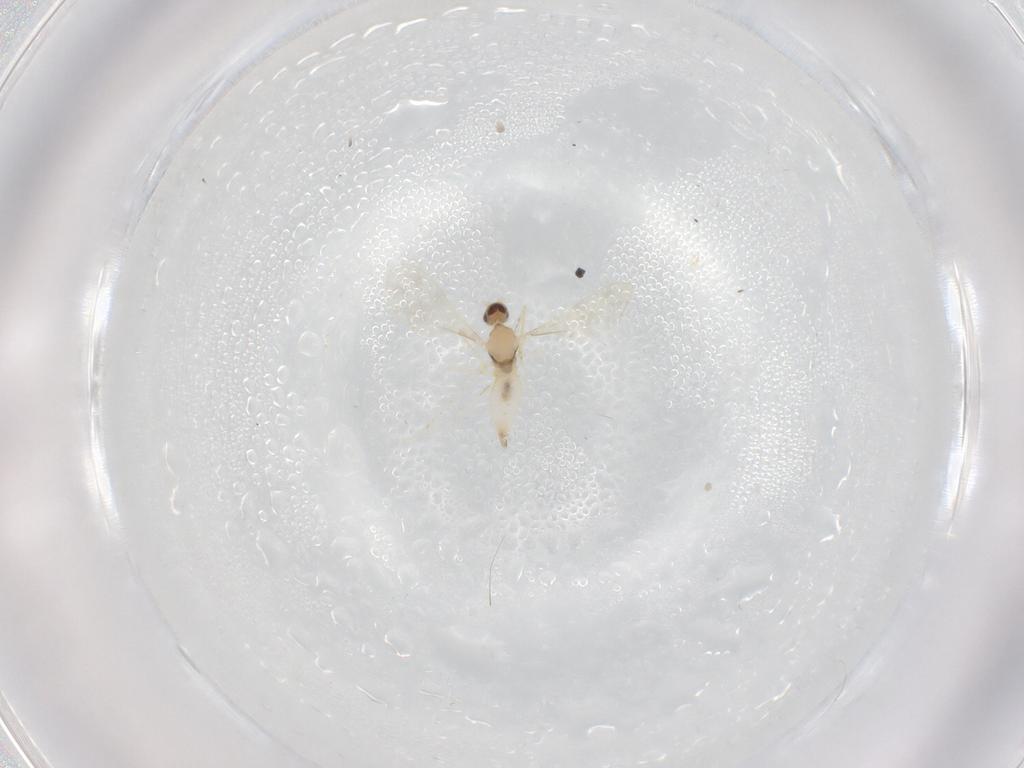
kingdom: Animalia
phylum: Arthropoda
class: Insecta
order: Diptera
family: Cecidomyiidae
